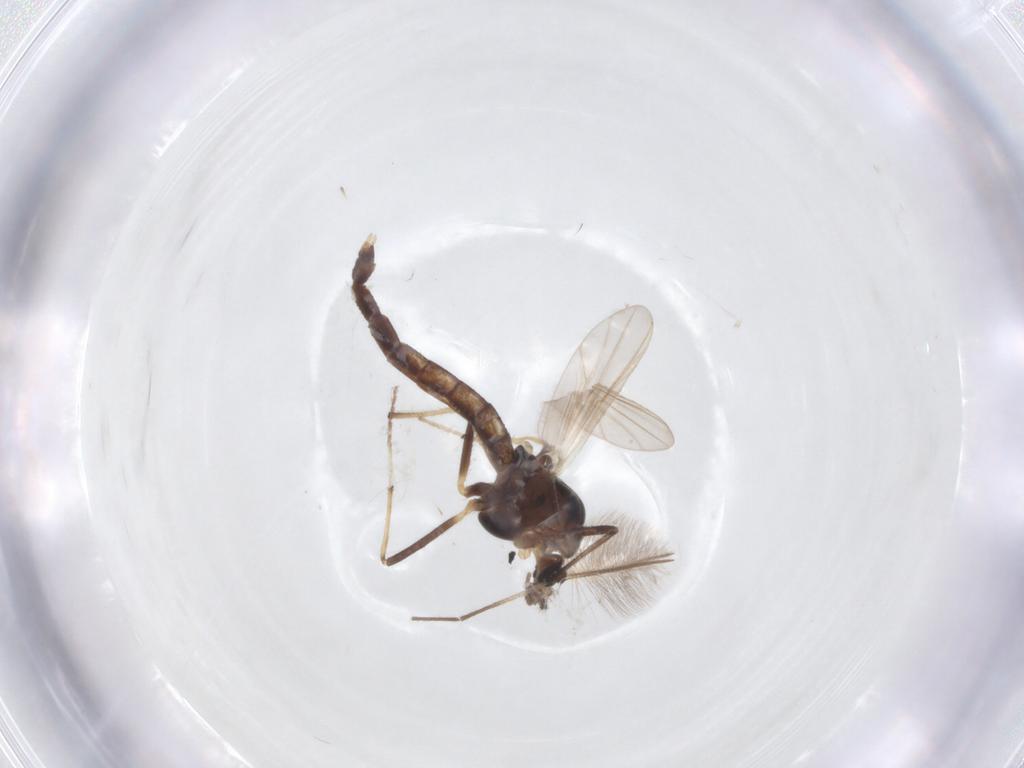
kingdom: Animalia
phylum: Arthropoda
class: Insecta
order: Diptera
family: Chironomidae
